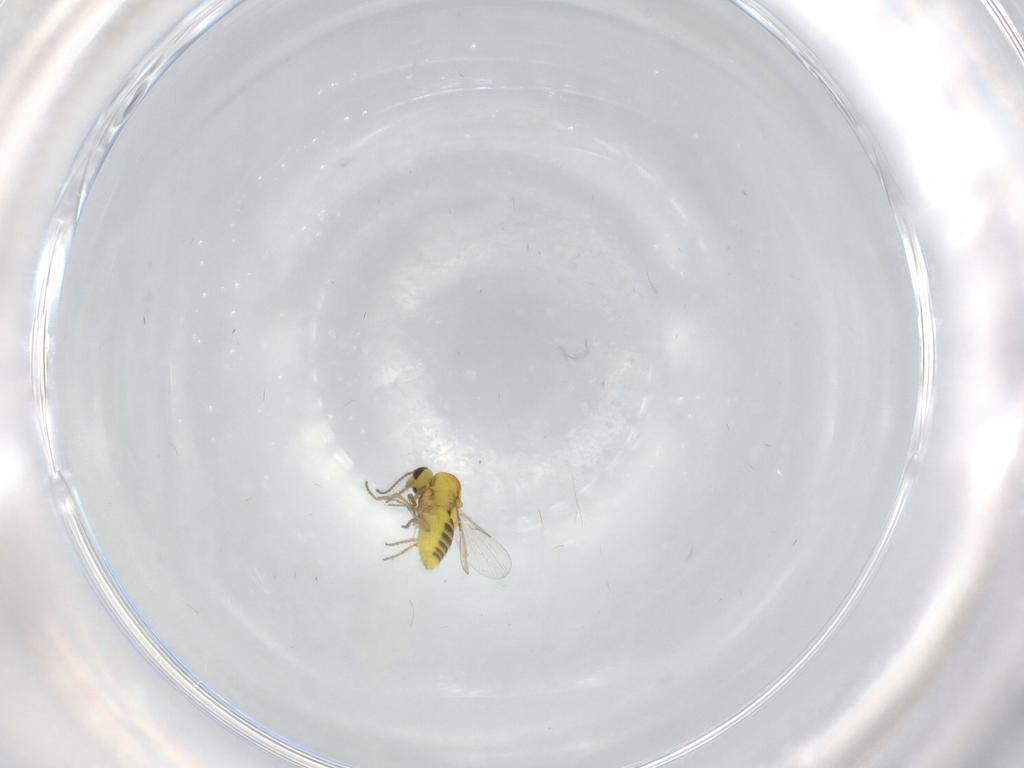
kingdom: Animalia
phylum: Arthropoda
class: Insecta
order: Diptera
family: Ceratopogonidae
